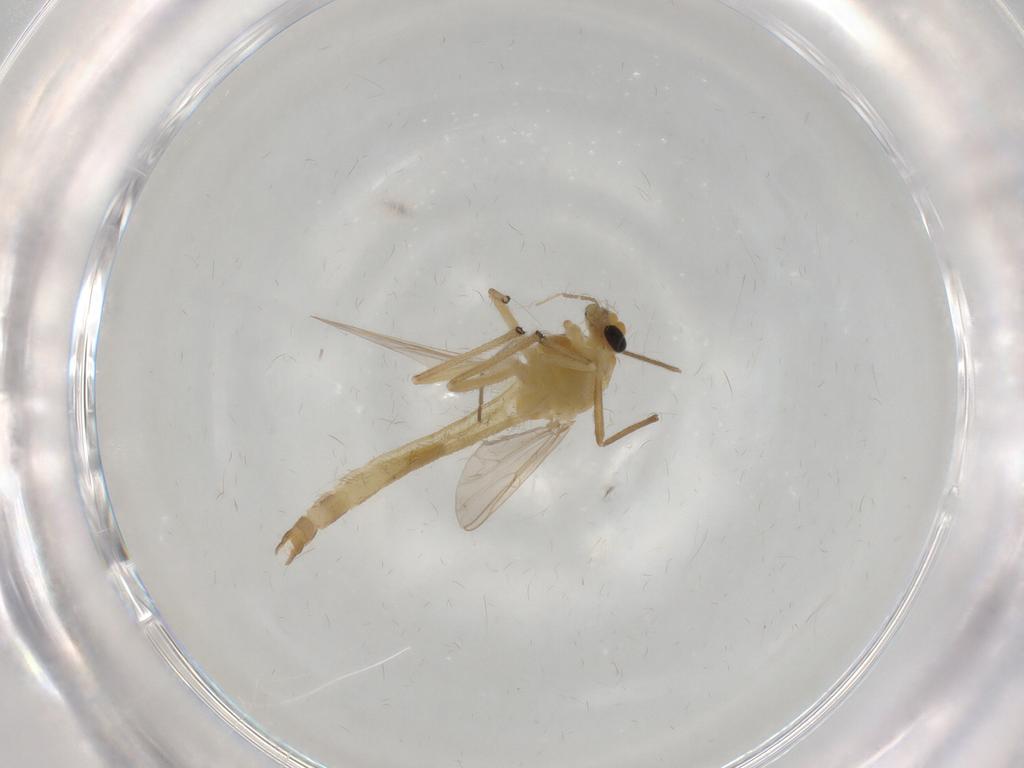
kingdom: Animalia
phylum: Arthropoda
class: Insecta
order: Diptera
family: Chironomidae
